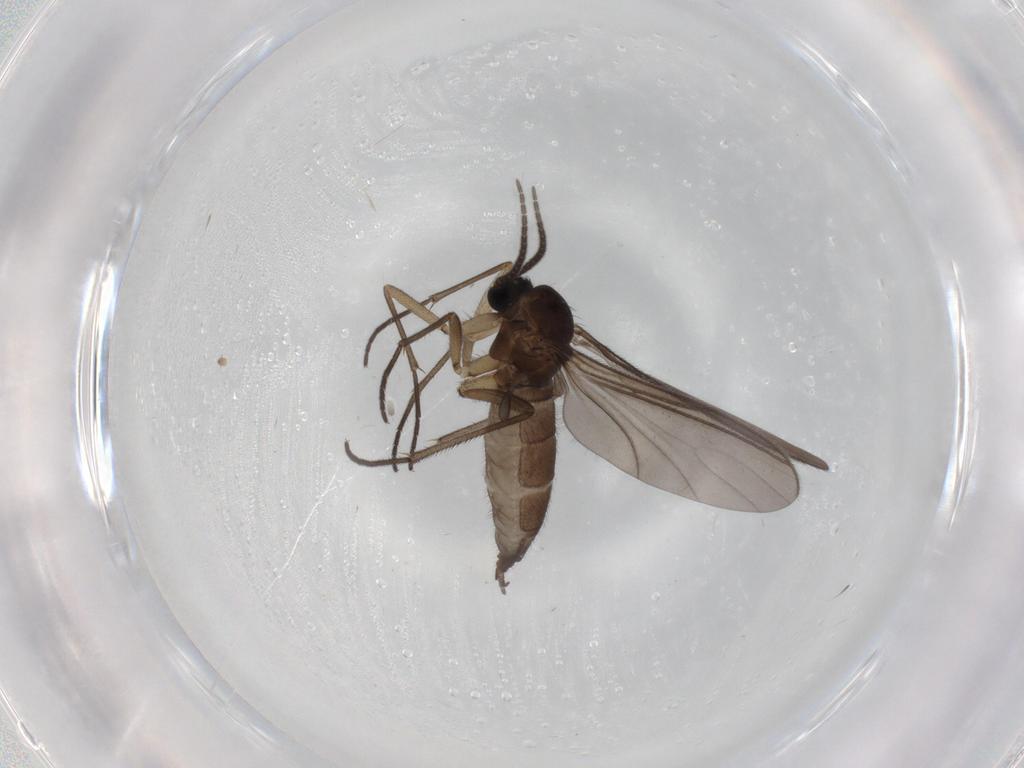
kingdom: Animalia
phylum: Arthropoda
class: Insecta
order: Diptera
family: Sciaridae
